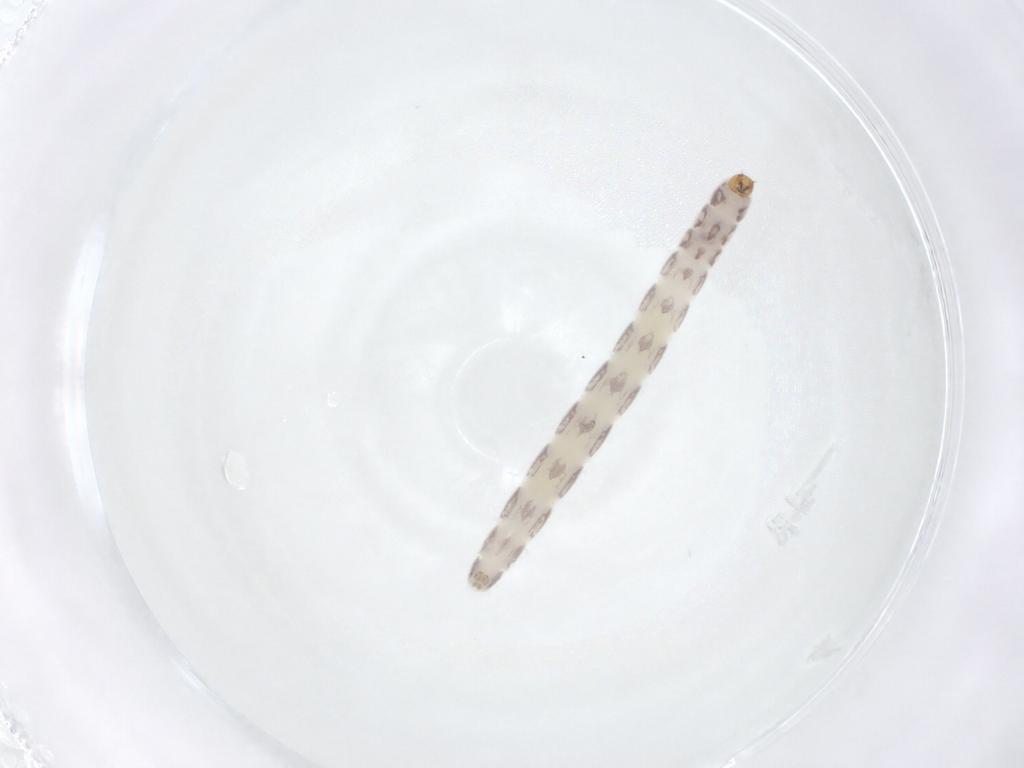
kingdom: Animalia
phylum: Arthropoda
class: Insecta
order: Diptera
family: Chironomidae
